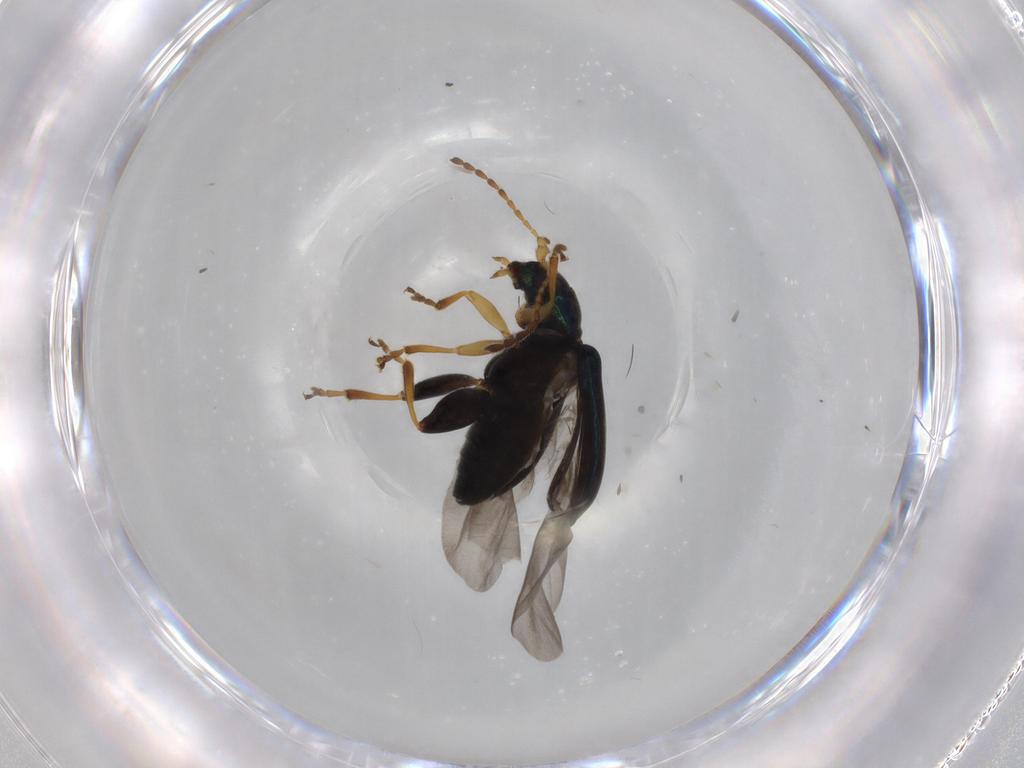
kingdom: Animalia
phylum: Arthropoda
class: Insecta
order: Coleoptera
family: Chrysomelidae
